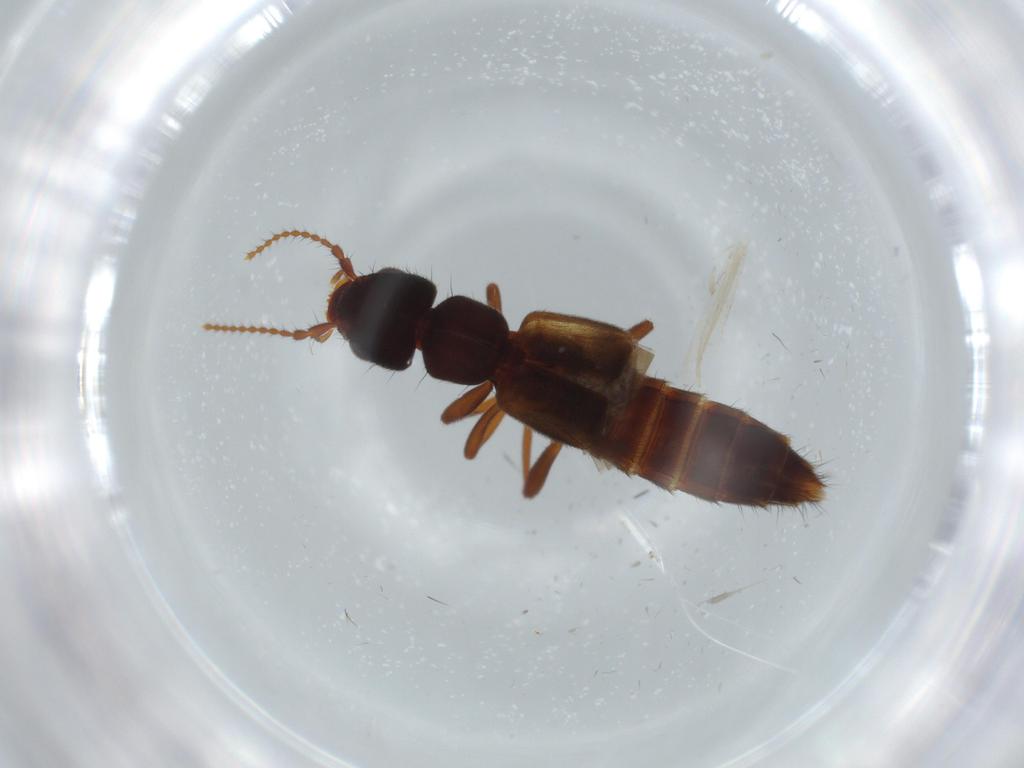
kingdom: Animalia
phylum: Arthropoda
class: Insecta
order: Coleoptera
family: Staphylinidae
